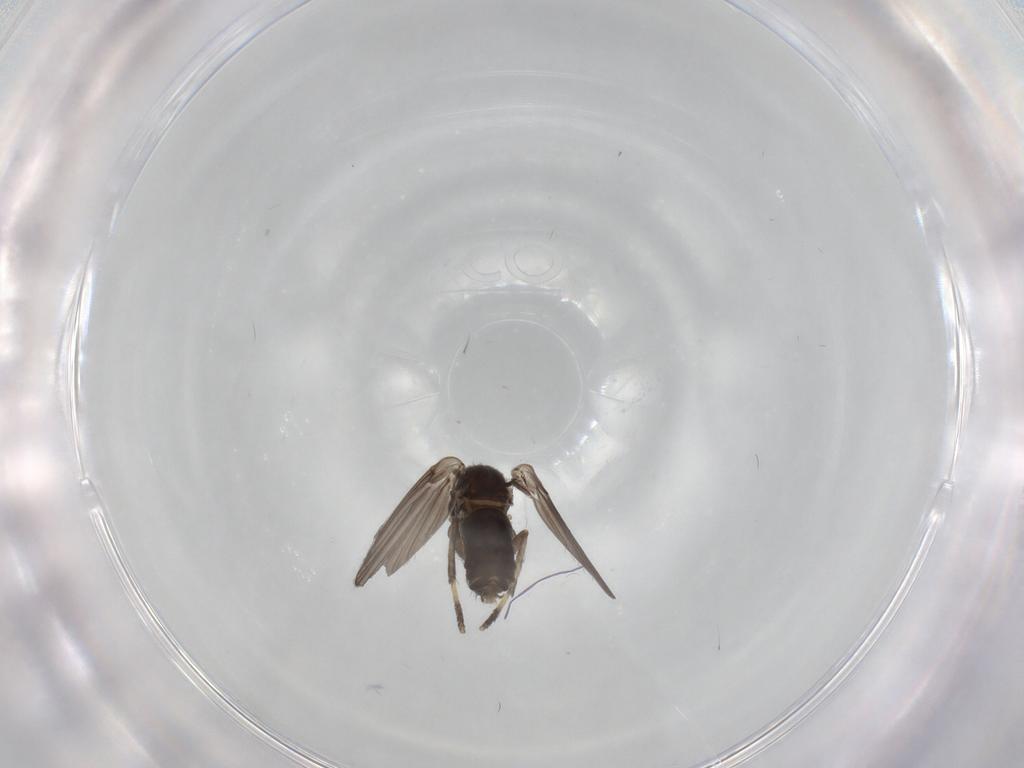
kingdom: Animalia
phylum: Arthropoda
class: Insecta
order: Diptera
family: Psychodidae
